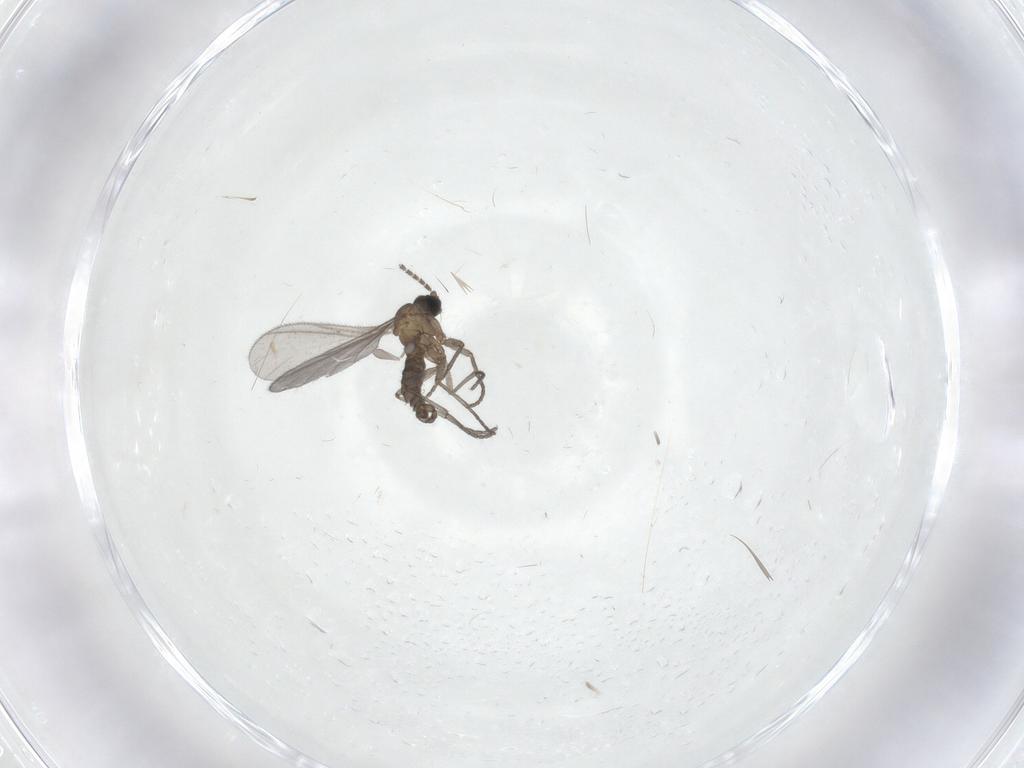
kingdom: Animalia
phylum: Arthropoda
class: Insecta
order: Diptera
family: Sciaridae
